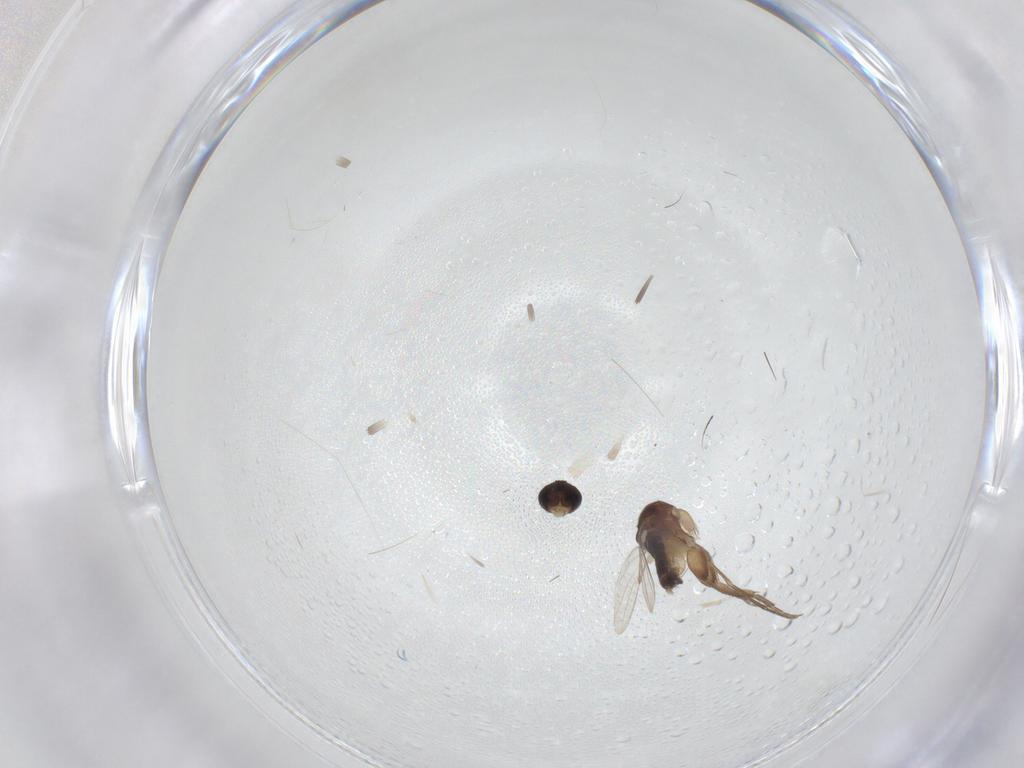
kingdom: Animalia
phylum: Arthropoda
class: Insecta
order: Diptera
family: Phoridae
